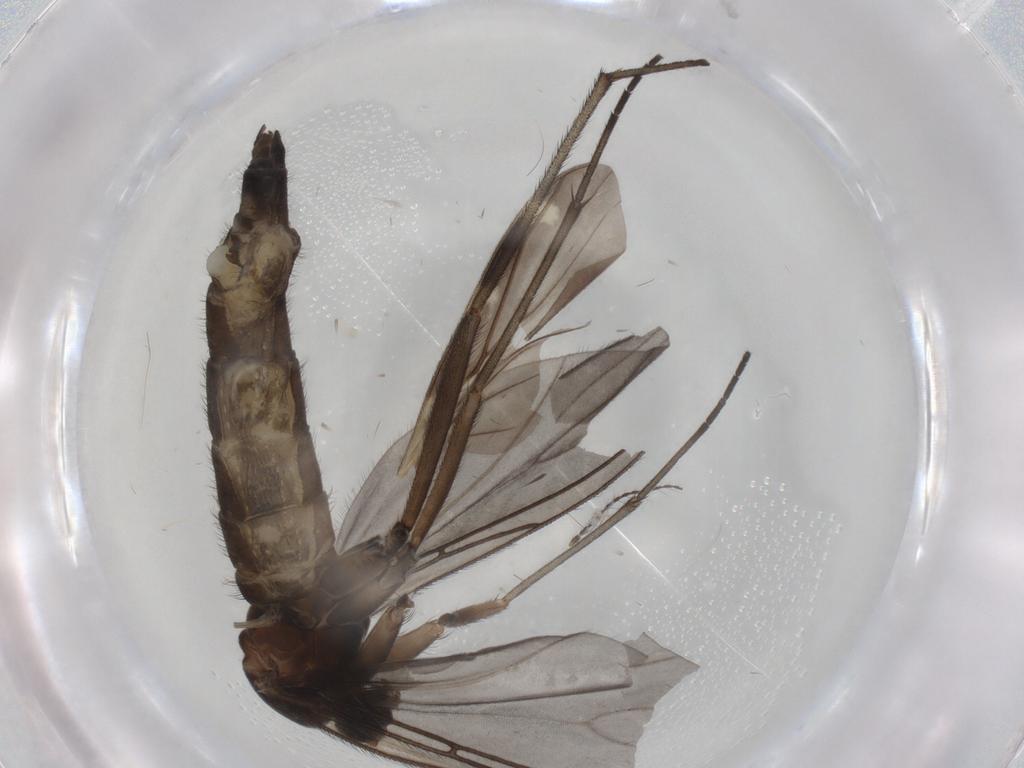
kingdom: Animalia
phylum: Arthropoda
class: Insecta
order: Diptera
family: Sciaridae
